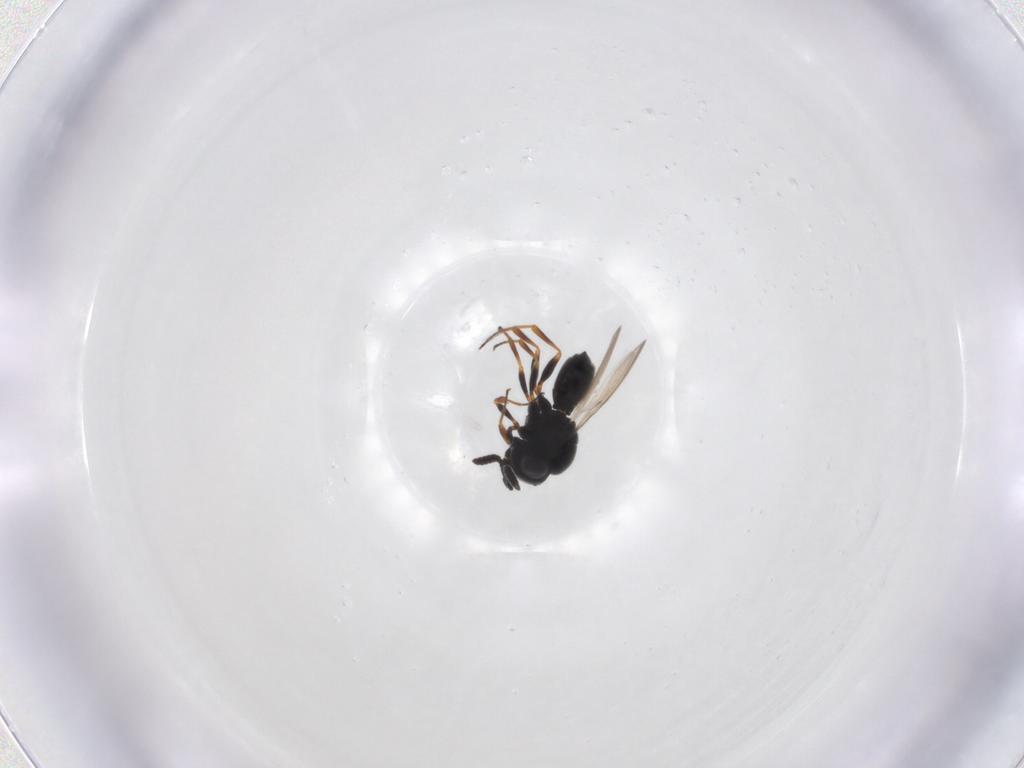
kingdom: Animalia
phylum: Arthropoda
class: Insecta
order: Hymenoptera
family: Scelionidae
